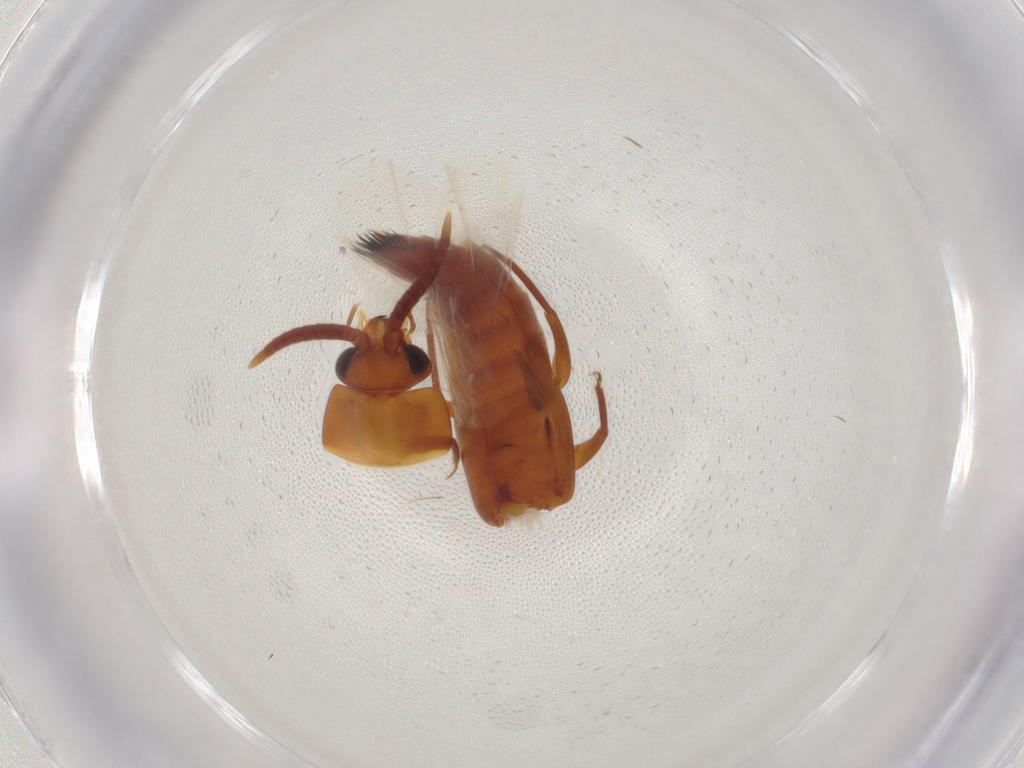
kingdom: Animalia
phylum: Arthropoda
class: Insecta
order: Coleoptera
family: Staphylinidae
